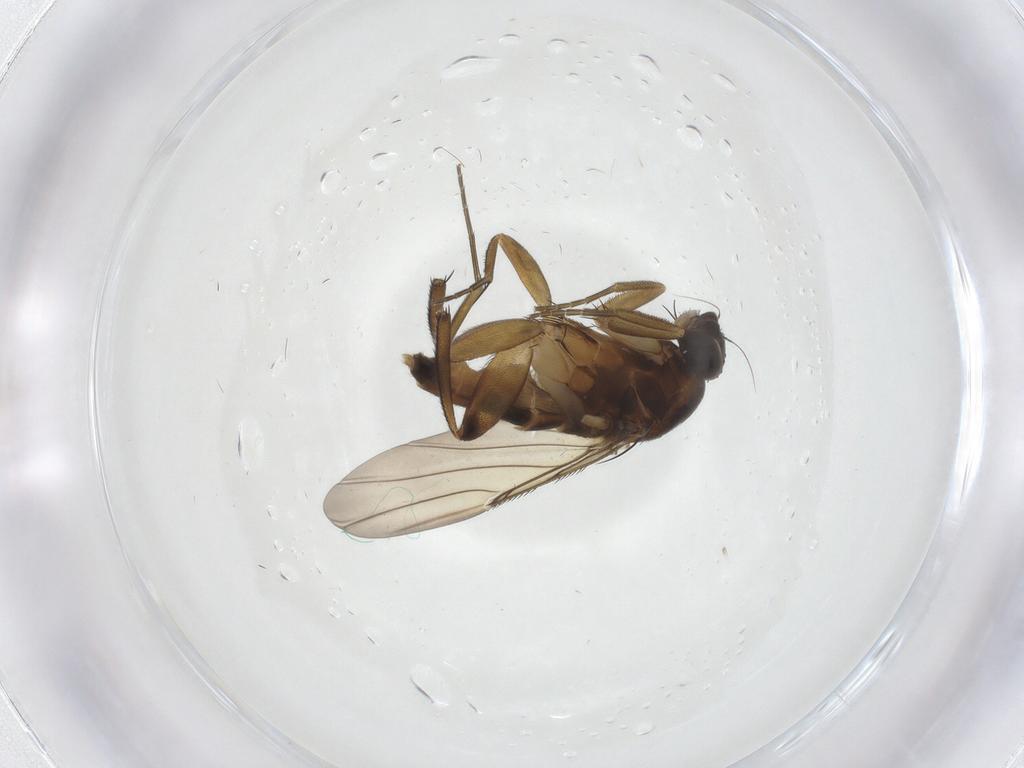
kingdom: Animalia
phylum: Arthropoda
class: Insecta
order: Diptera
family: Phoridae
